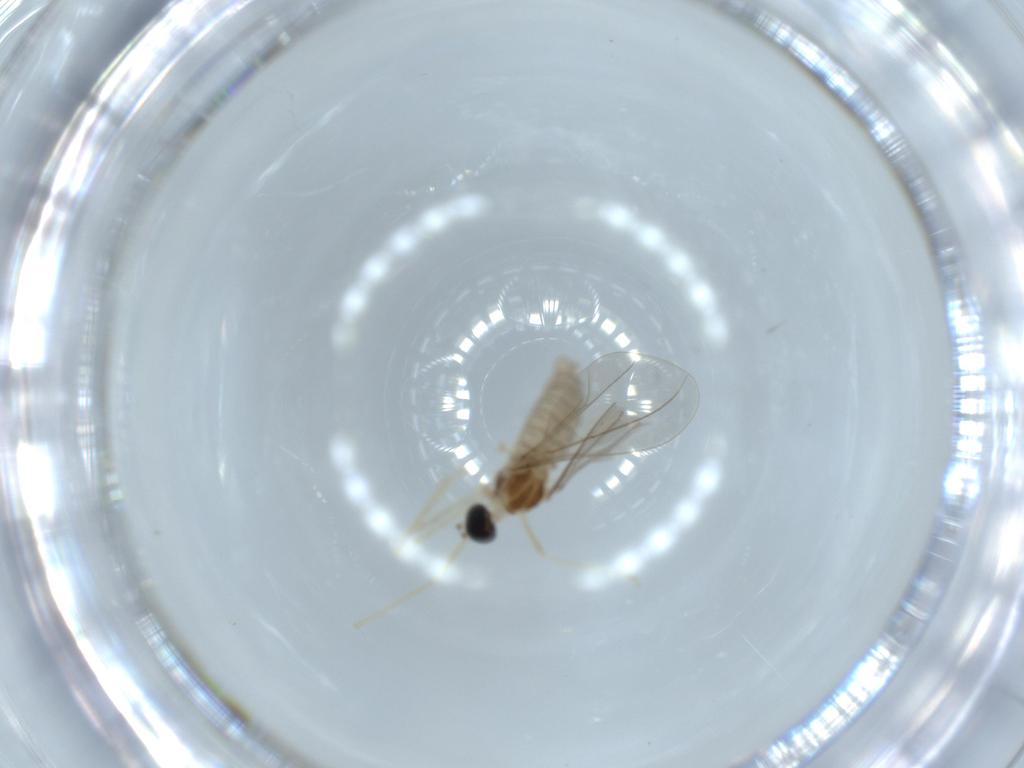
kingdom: Animalia
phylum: Arthropoda
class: Insecta
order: Diptera
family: Cecidomyiidae
